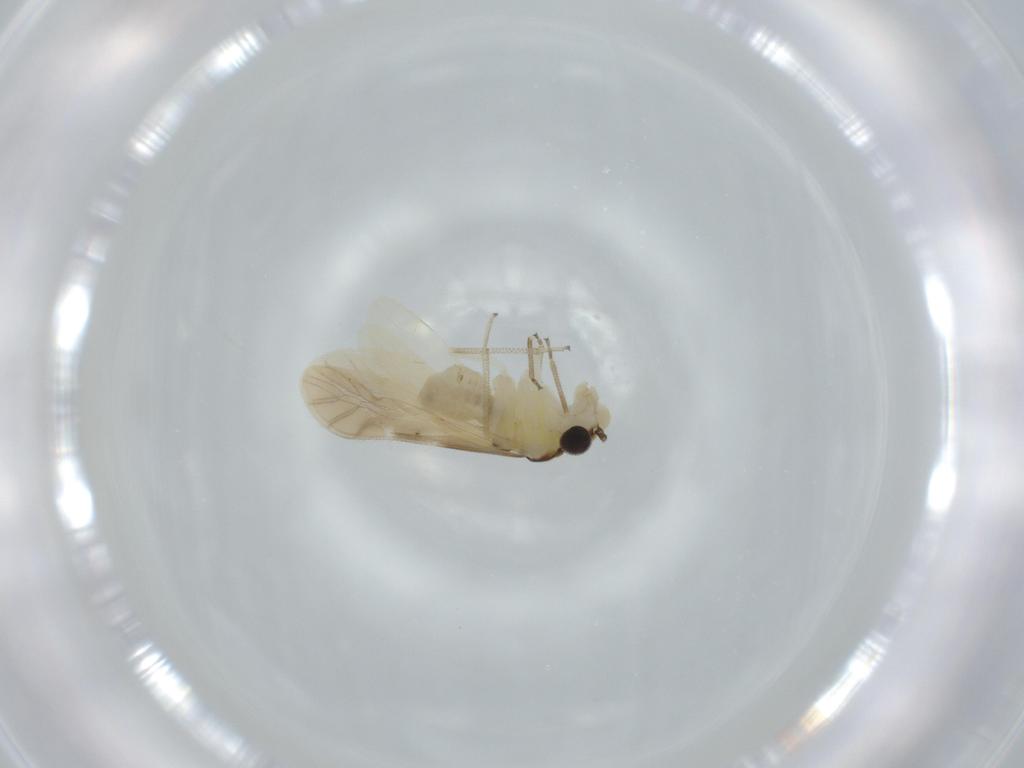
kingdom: Animalia
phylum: Arthropoda
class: Insecta
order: Psocodea
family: Caeciliusidae
